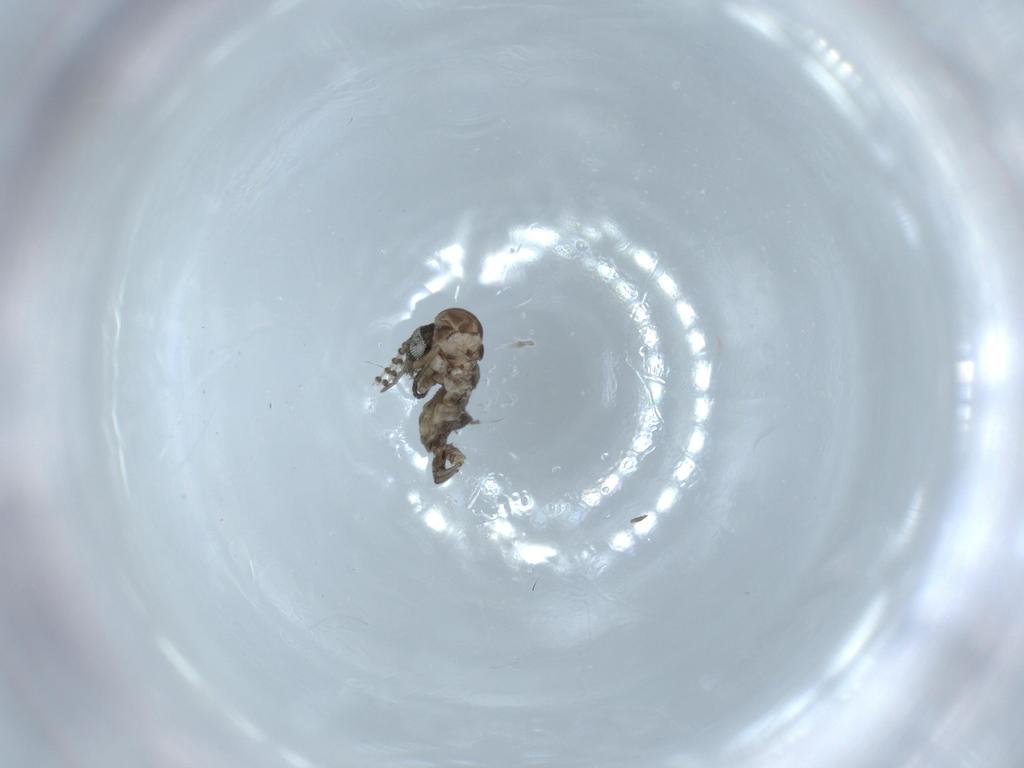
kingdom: Animalia
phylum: Arthropoda
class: Insecta
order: Diptera
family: Psychodidae
